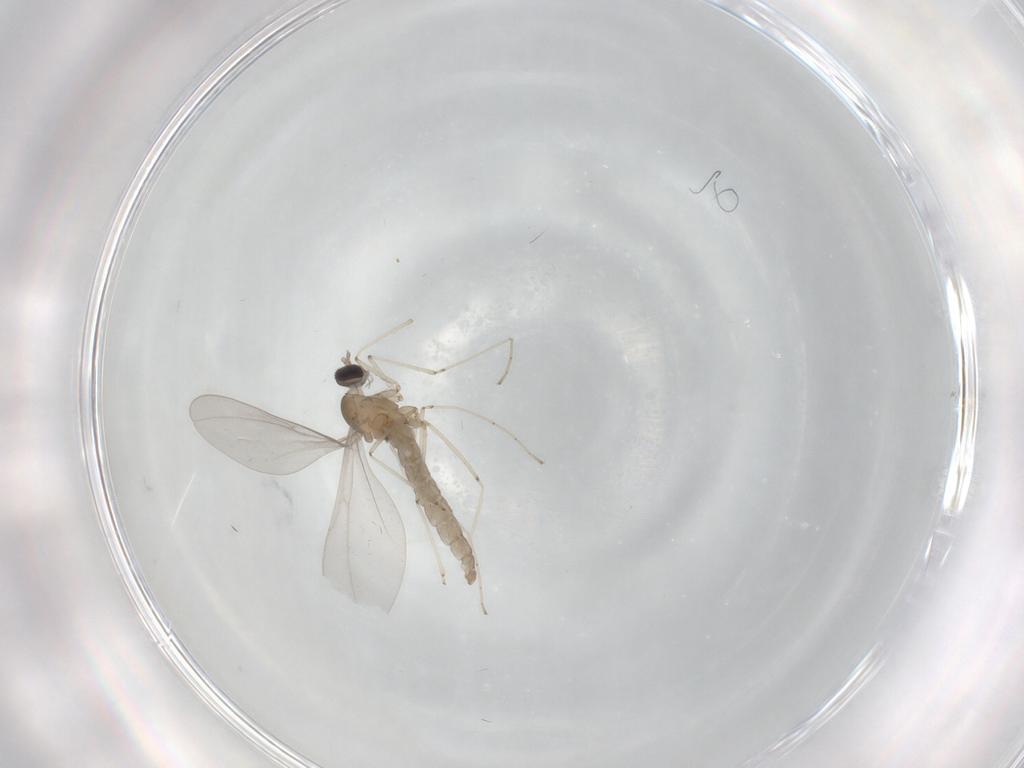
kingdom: Animalia
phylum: Arthropoda
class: Insecta
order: Diptera
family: Cecidomyiidae
